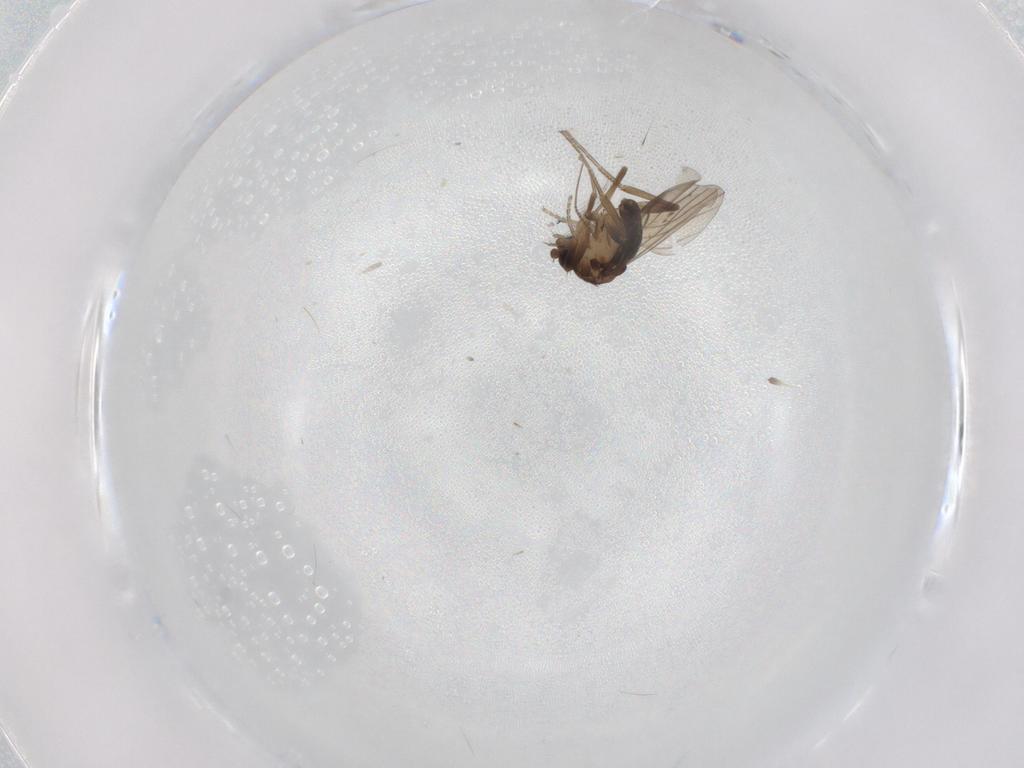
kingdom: Animalia
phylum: Arthropoda
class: Insecta
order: Diptera
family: Phoridae
